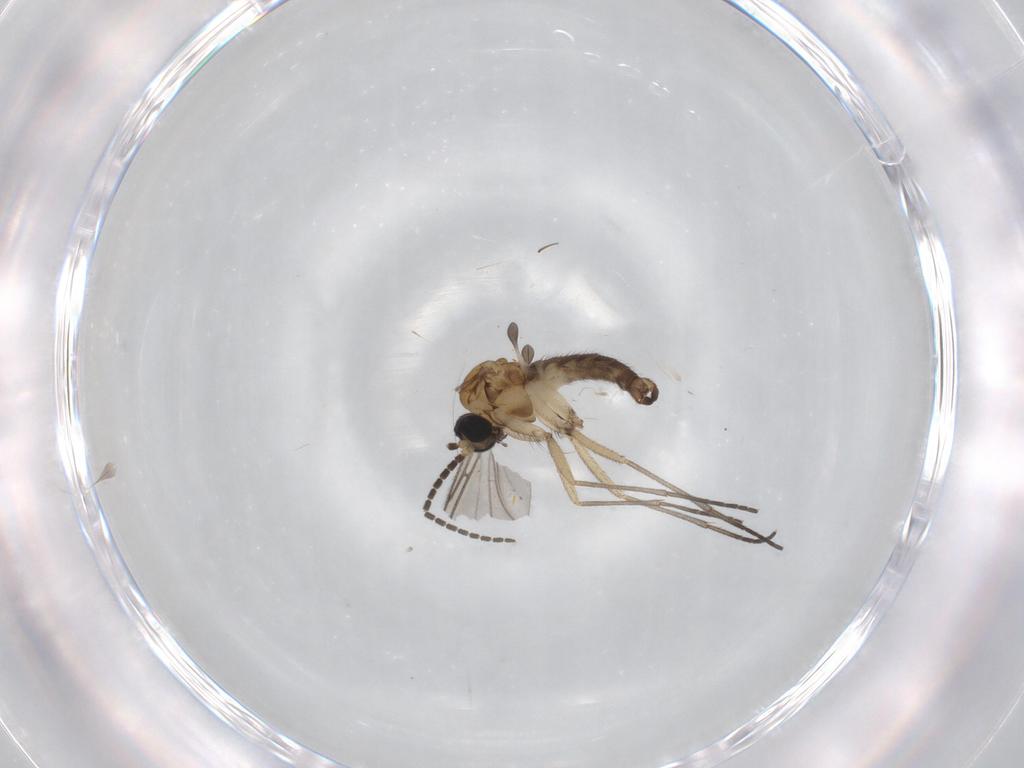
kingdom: Animalia
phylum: Arthropoda
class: Insecta
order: Diptera
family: Sciaridae
